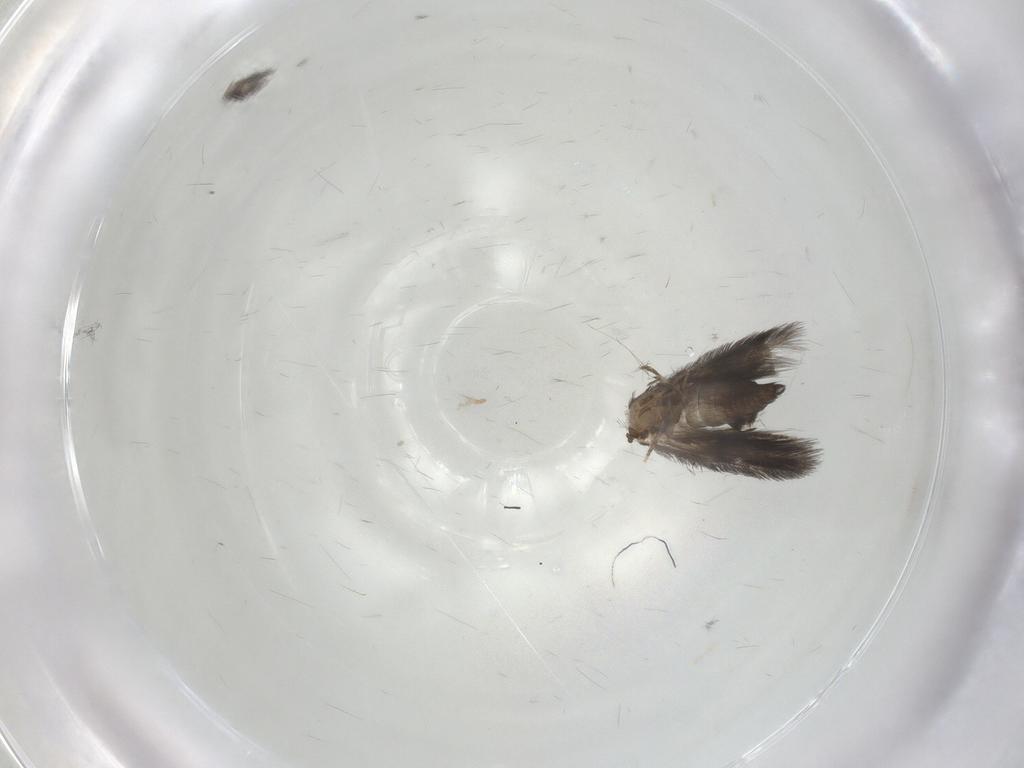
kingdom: Animalia
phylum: Arthropoda
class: Insecta
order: Trichoptera
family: Hydroptilidae
